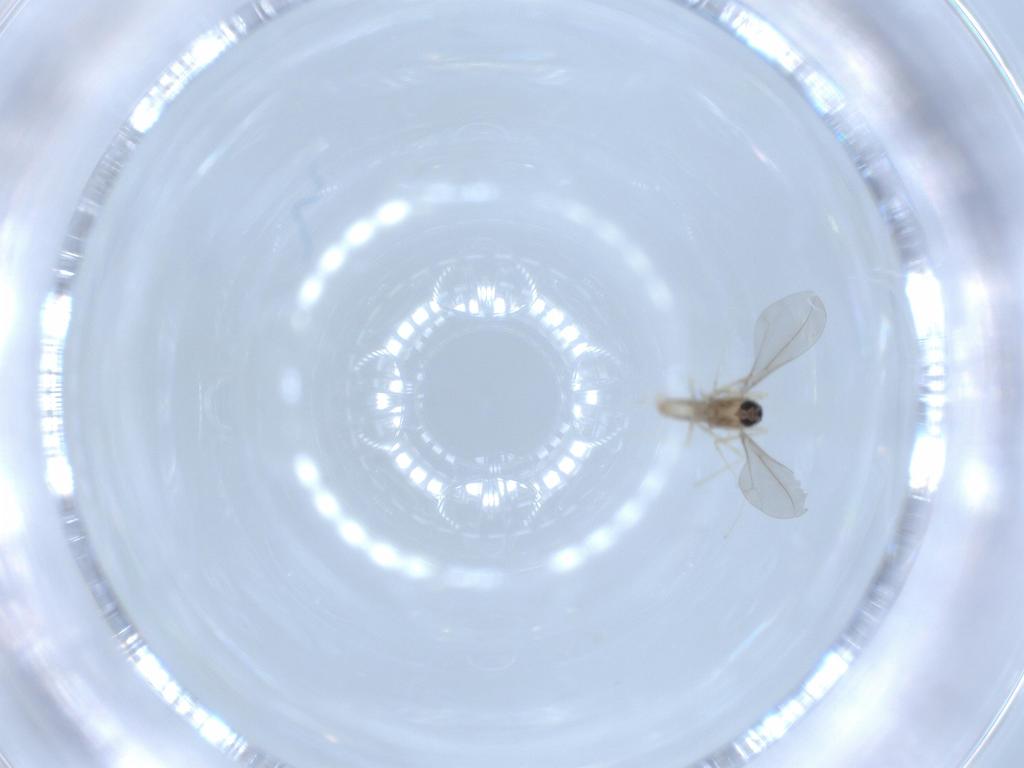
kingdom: Animalia
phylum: Arthropoda
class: Insecta
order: Diptera
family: Cecidomyiidae
